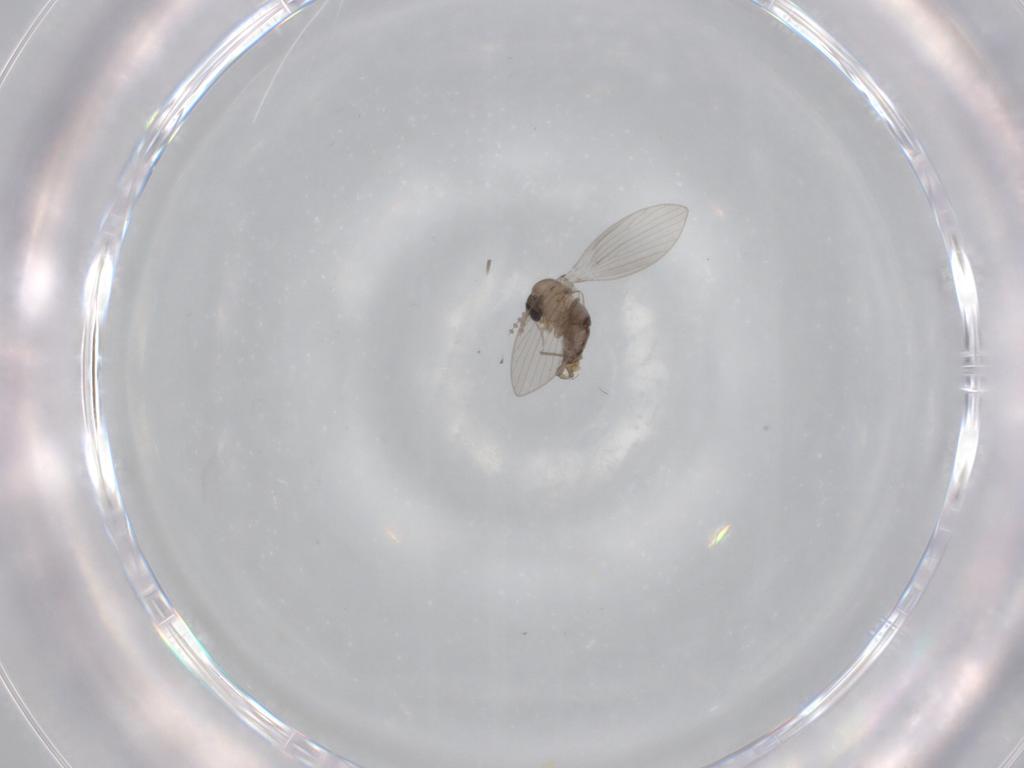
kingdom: Animalia
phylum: Arthropoda
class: Insecta
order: Diptera
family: Psychodidae
